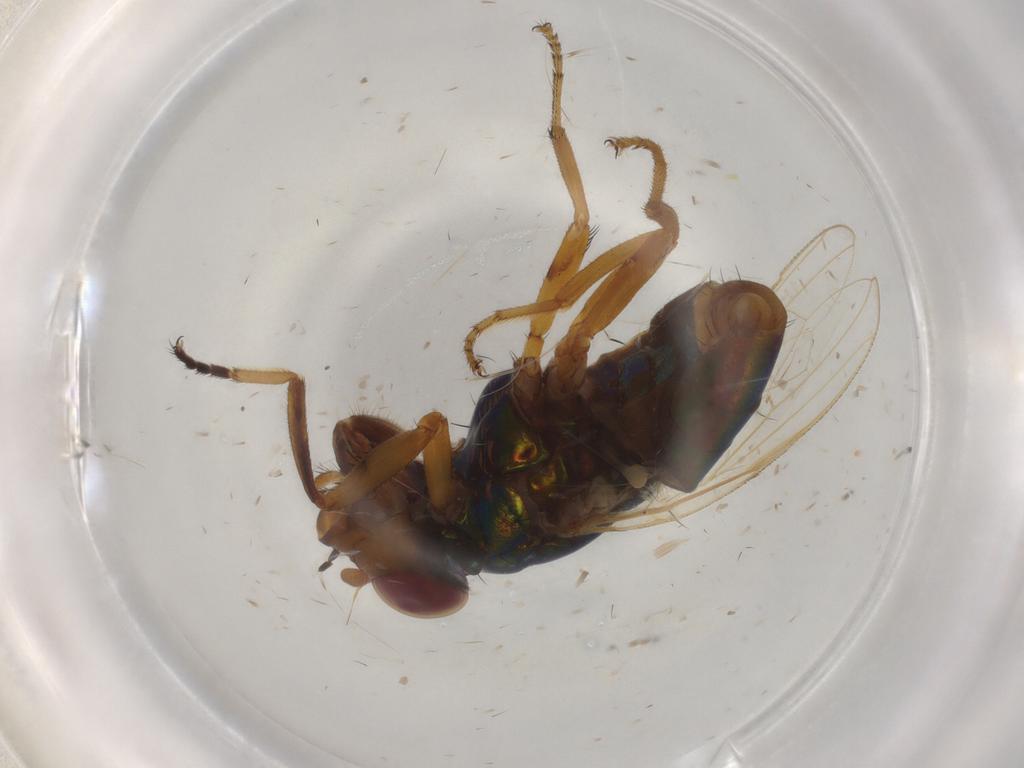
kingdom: Animalia
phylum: Arthropoda
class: Insecta
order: Diptera
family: Ulidiidae
